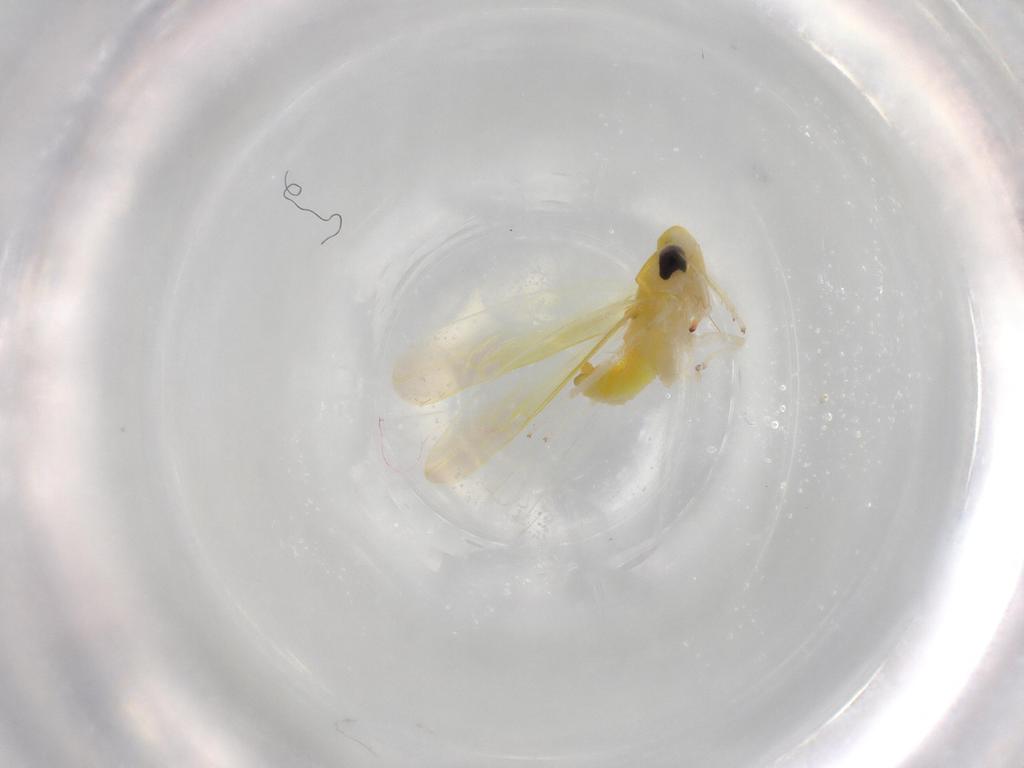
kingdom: Animalia
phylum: Arthropoda
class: Insecta
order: Hemiptera
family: Cicadellidae
